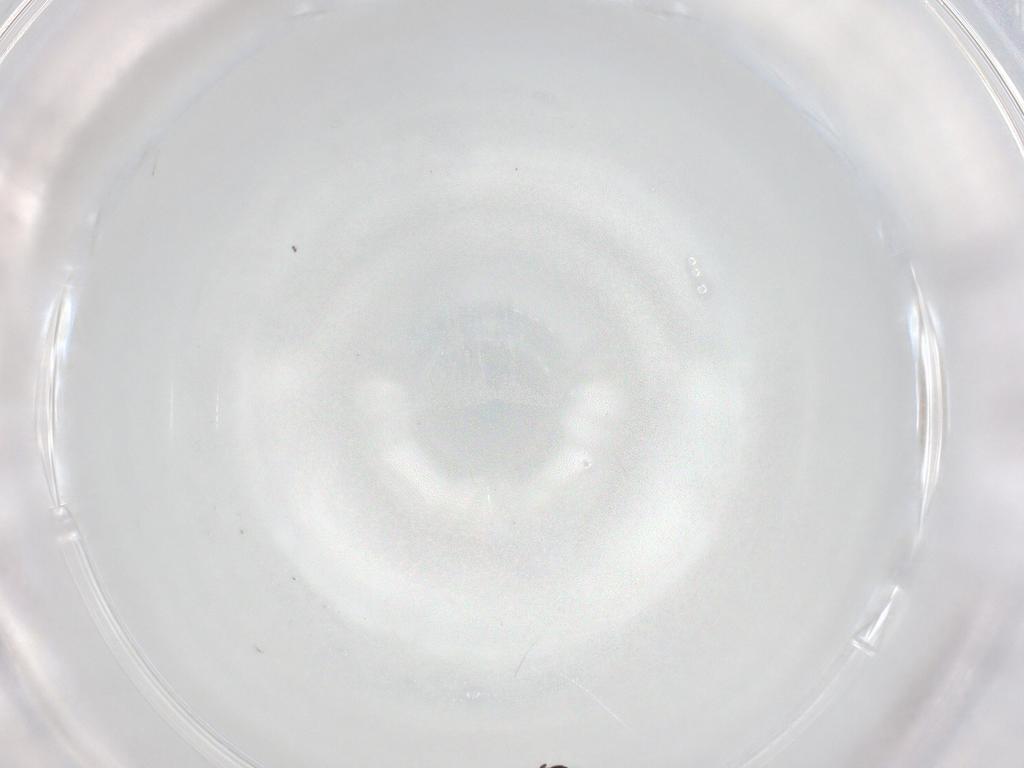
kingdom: Animalia
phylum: Arthropoda
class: Insecta
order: Hymenoptera
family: Scelionidae
